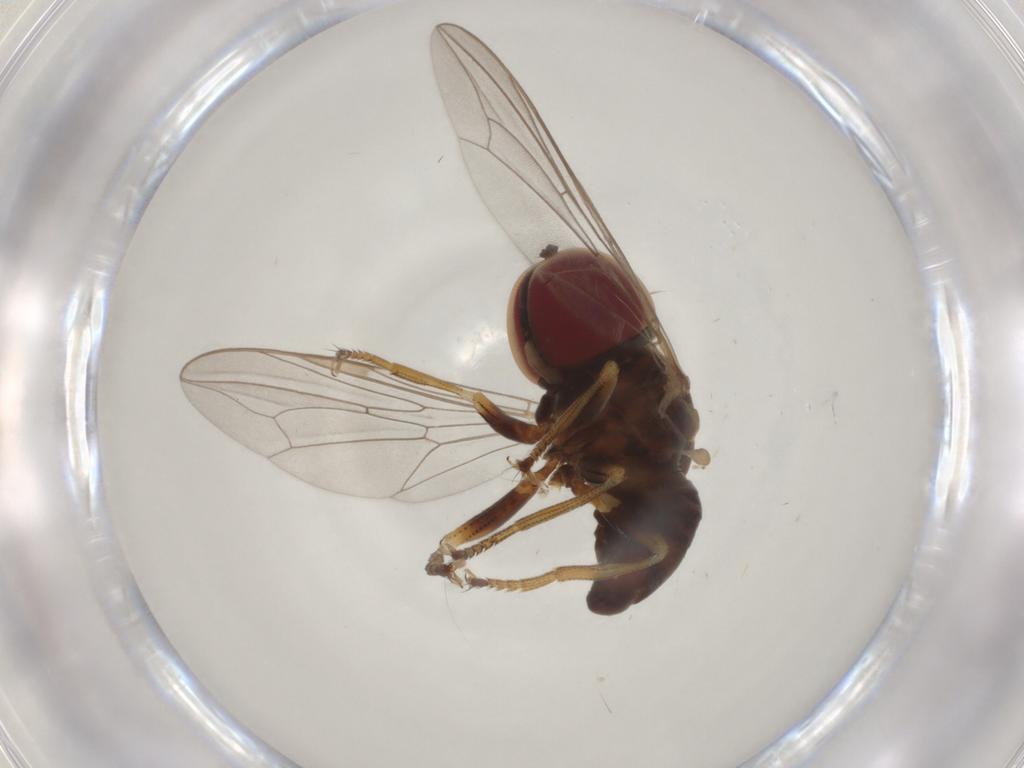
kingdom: Animalia
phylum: Arthropoda
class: Insecta
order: Diptera
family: Pipunculidae
